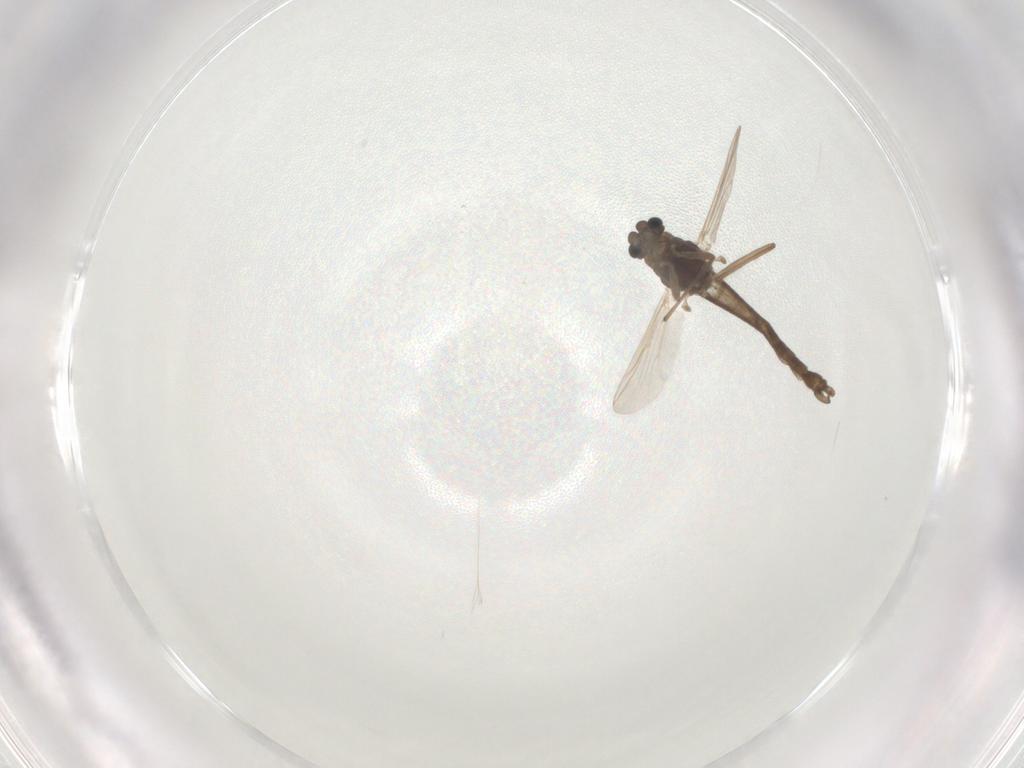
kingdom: Animalia
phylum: Arthropoda
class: Insecta
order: Diptera
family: Chironomidae
